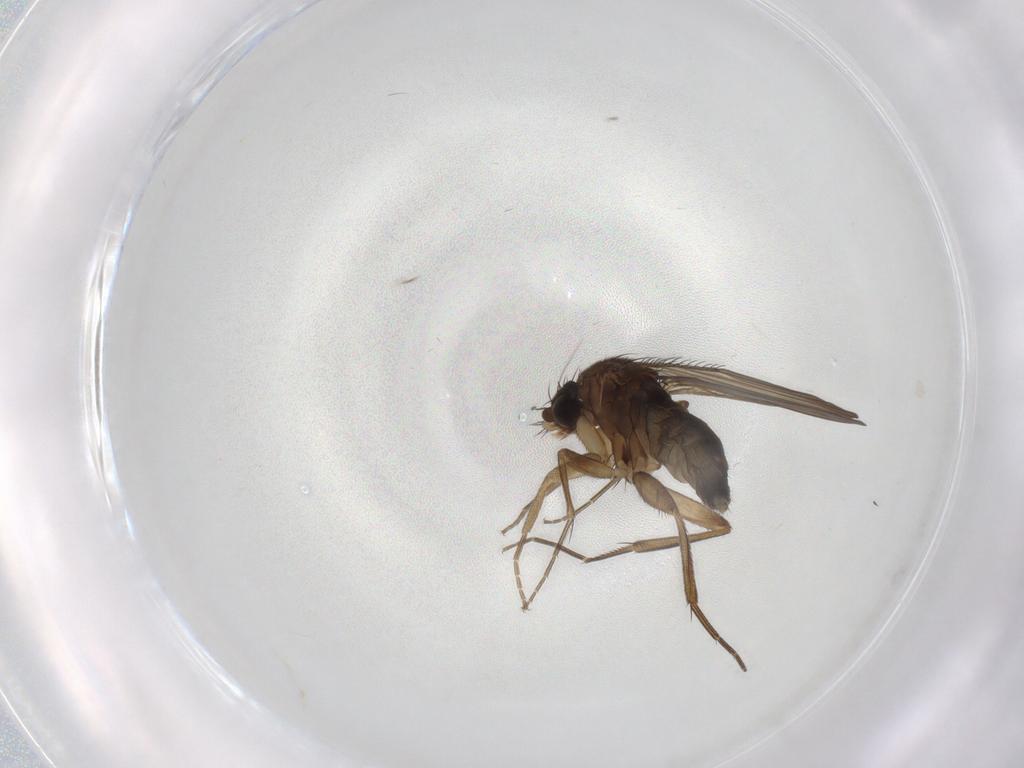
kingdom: Animalia
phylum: Arthropoda
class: Insecta
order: Diptera
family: Phoridae
